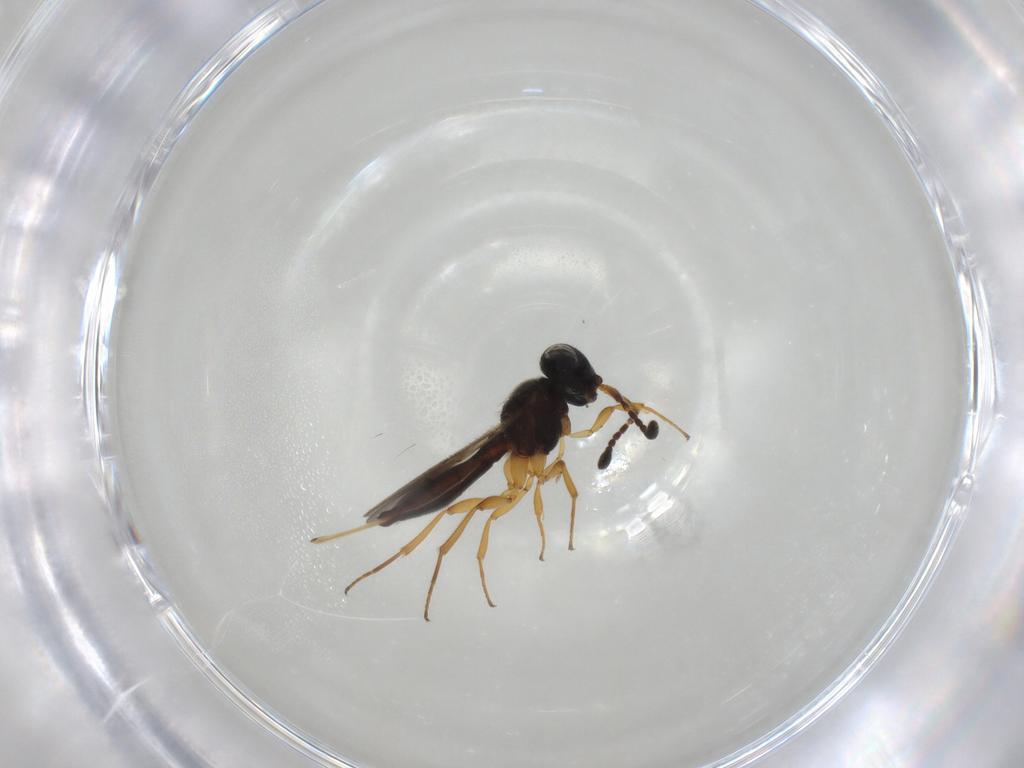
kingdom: Animalia
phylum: Arthropoda
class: Insecta
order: Hymenoptera
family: Scelionidae
